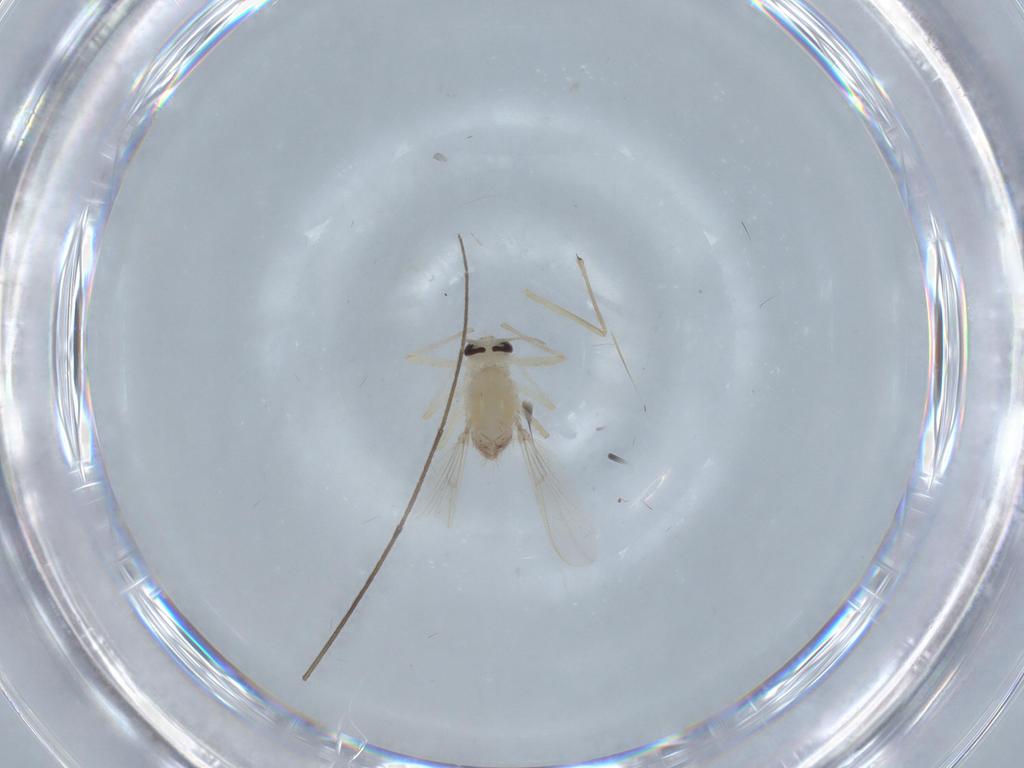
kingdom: Animalia
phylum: Arthropoda
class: Insecta
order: Diptera
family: Chironomidae
